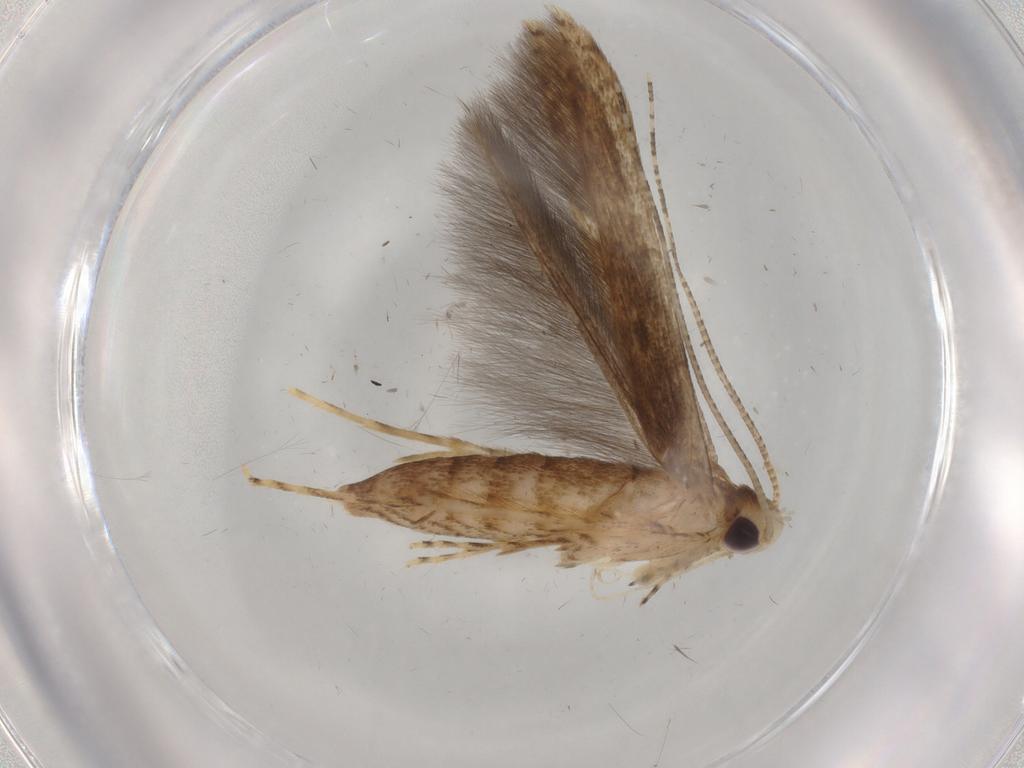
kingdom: Animalia
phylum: Arthropoda
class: Insecta
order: Lepidoptera
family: Batrachedridae
